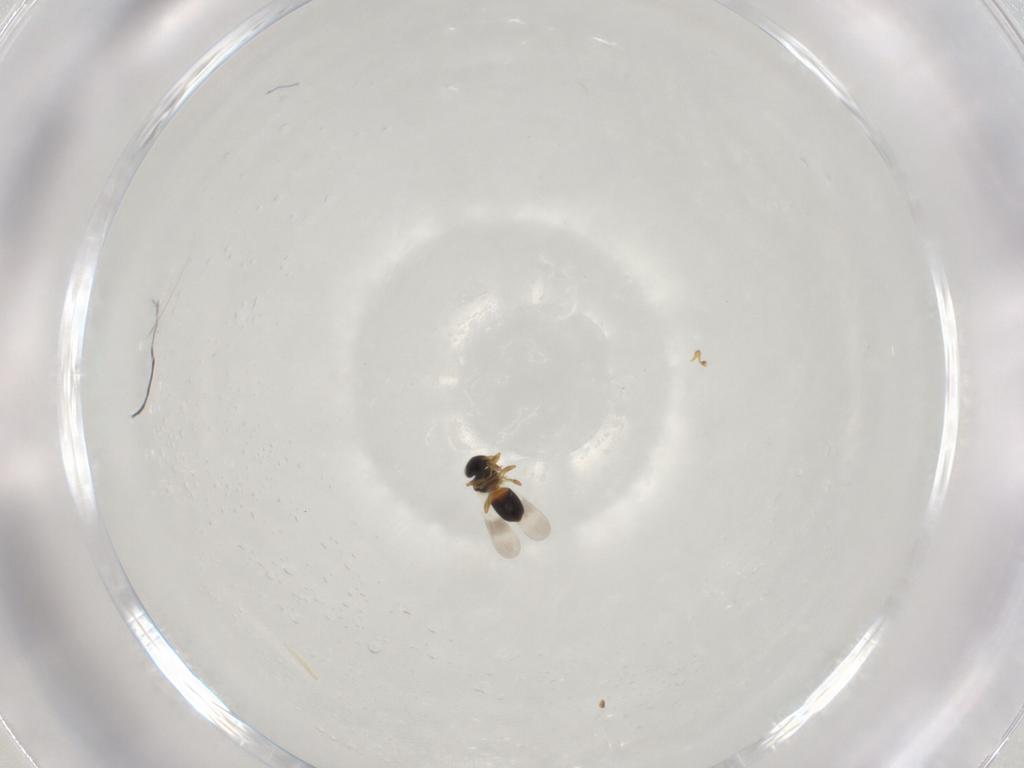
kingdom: Animalia
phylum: Arthropoda
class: Insecta
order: Hymenoptera
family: Platygastridae
